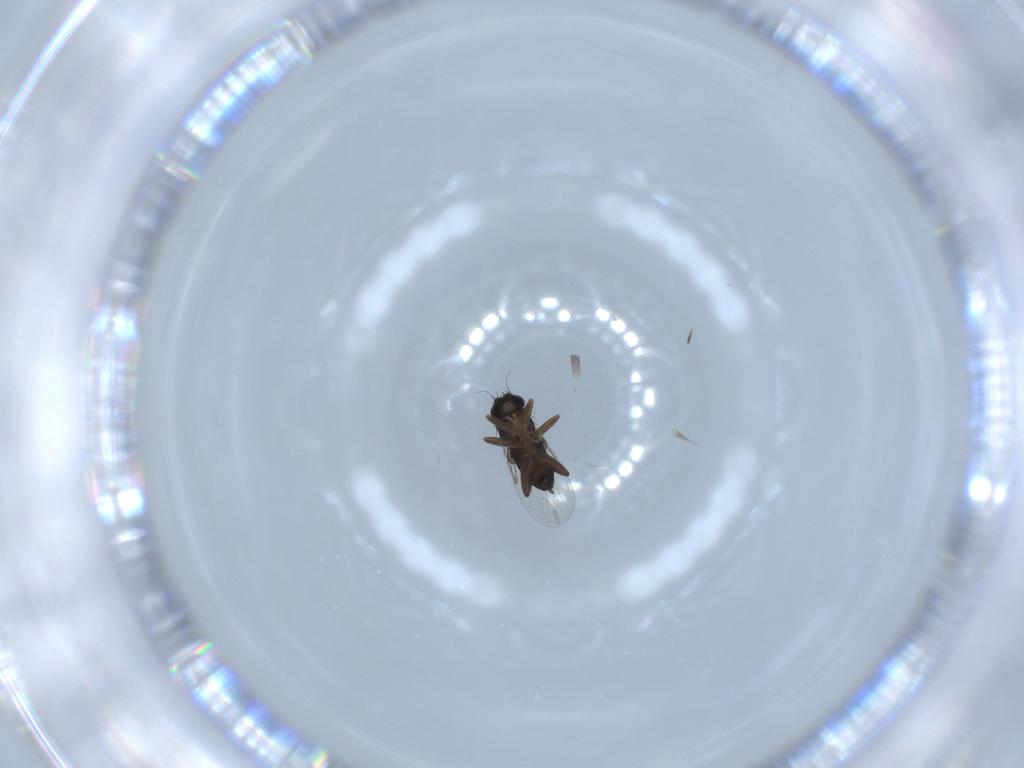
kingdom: Animalia
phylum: Arthropoda
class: Insecta
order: Diptera
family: Phoridae
